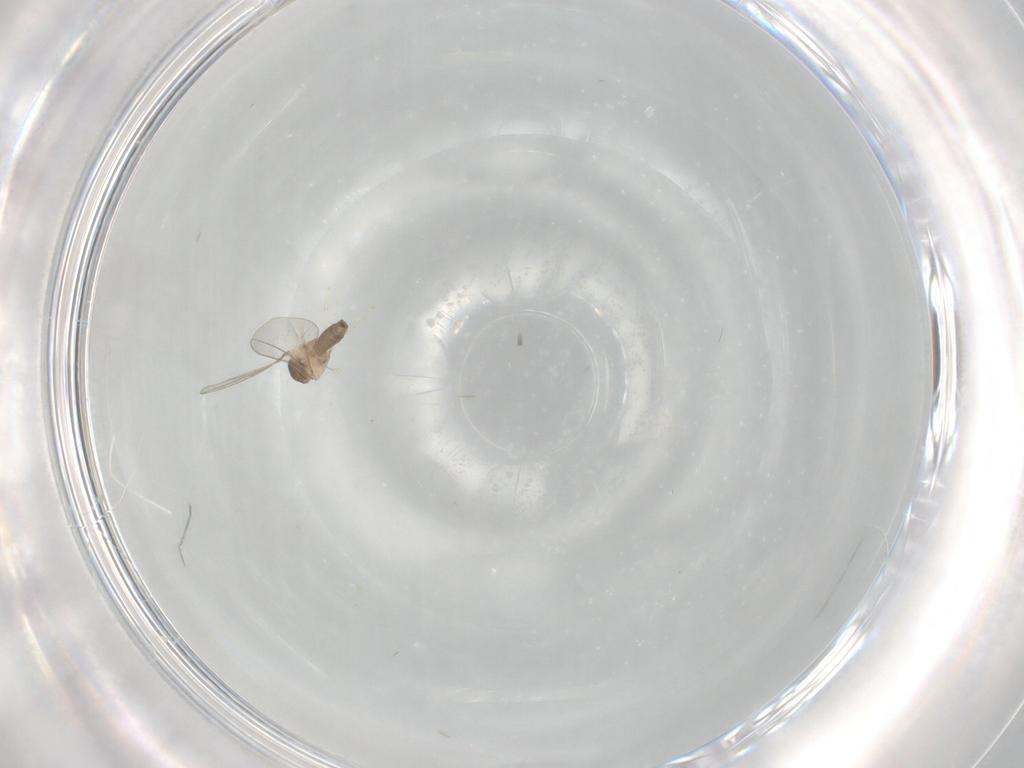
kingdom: Animalia
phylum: Arthropoda
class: Insecta
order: Diptera
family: Cecidomyiidae
